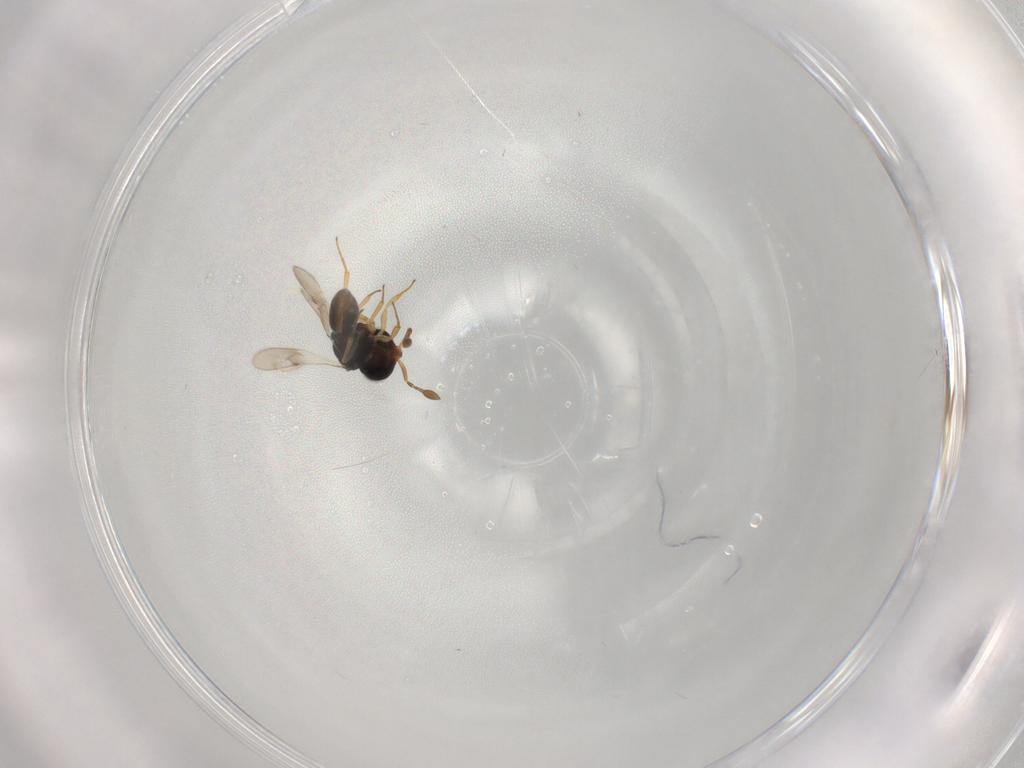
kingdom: Animalia
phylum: Arthropoda
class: Insecta
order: Hymenoptera
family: Scelionidae
